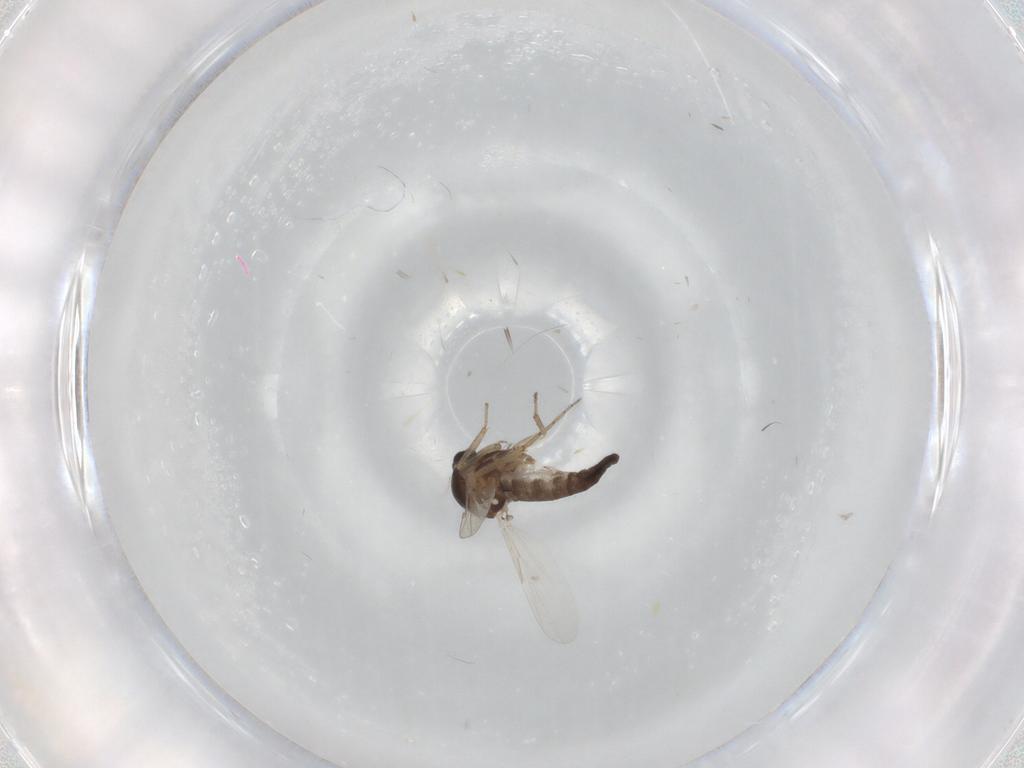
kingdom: Animalia
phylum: Arthropoda
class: Insecta
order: Diptera
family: Ceratopogonidae
